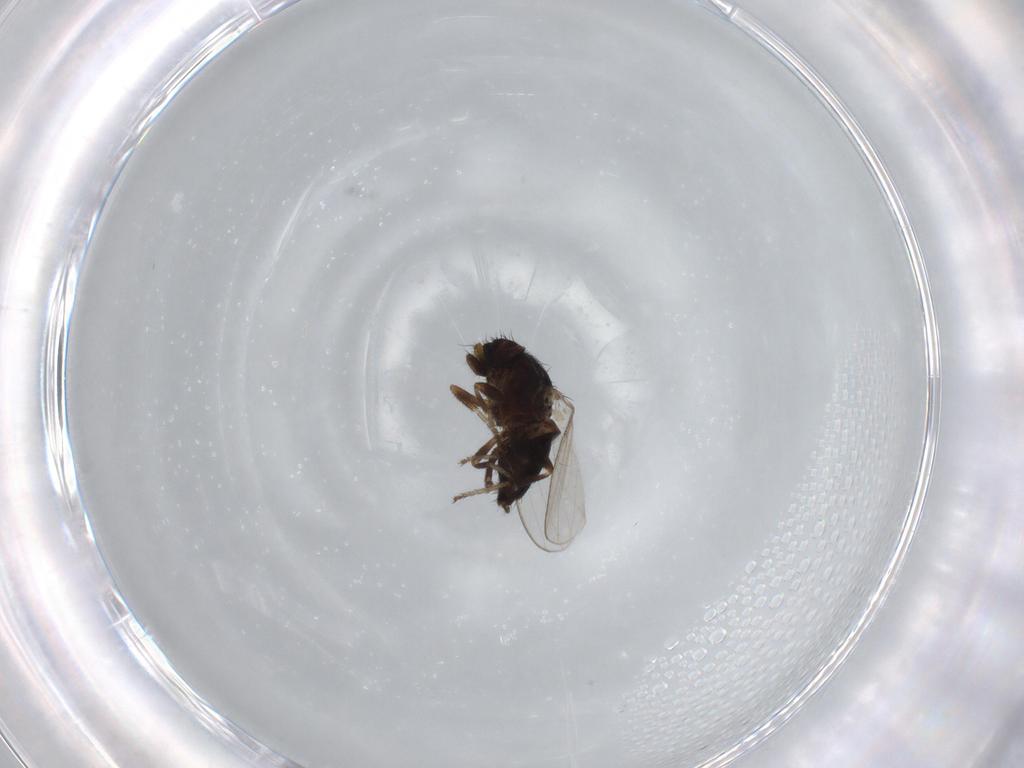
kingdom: Animalia
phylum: Arthropoda
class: Insecta
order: Diptera
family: Milichiidae
